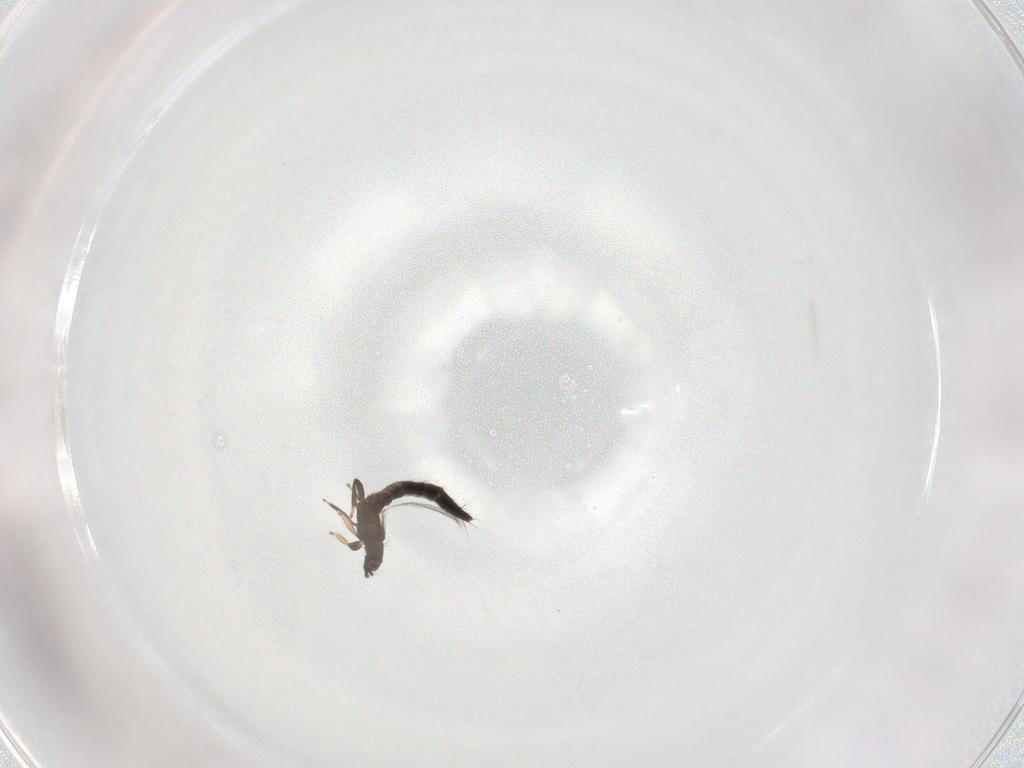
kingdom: Animalia
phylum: Arthropoda
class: Insecta
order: Thysanoptera
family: Thripidae
